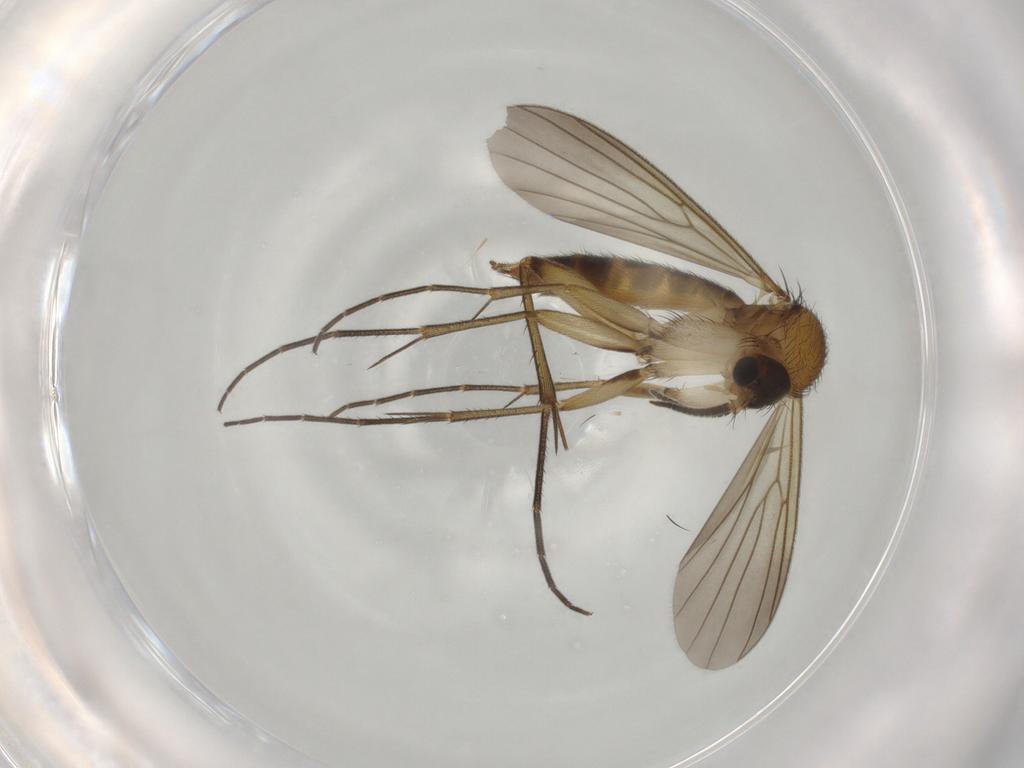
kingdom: Animalia
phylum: Arthropoda
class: Insecta
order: Diptera
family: Mycetophilidae
